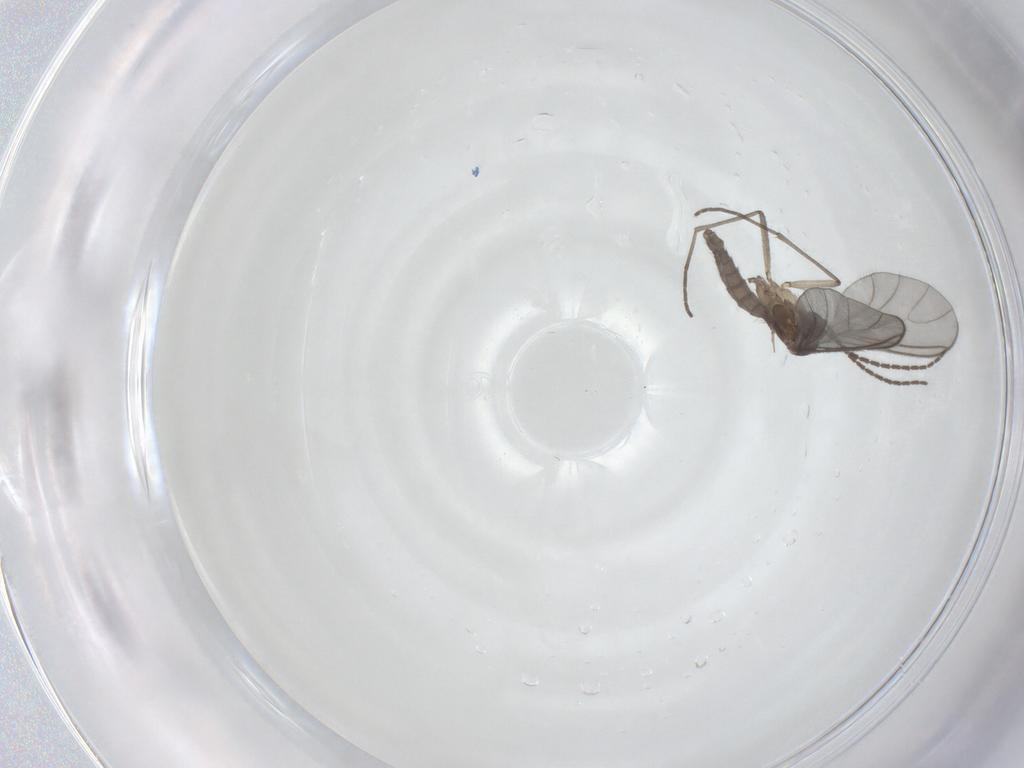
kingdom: Animalia
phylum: Arthropoda
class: Insecta
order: Diptera
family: Sciaridae
